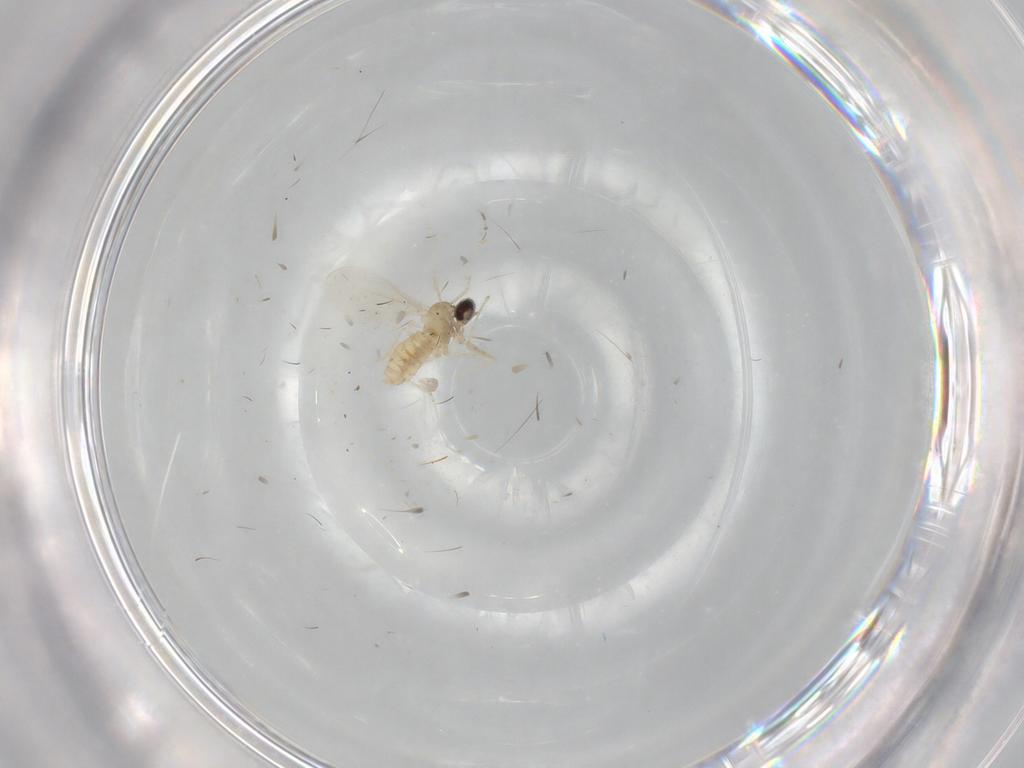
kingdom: Animalia
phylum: Arthropoda
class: Insecta
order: Diptera
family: Cecidomyiidae
